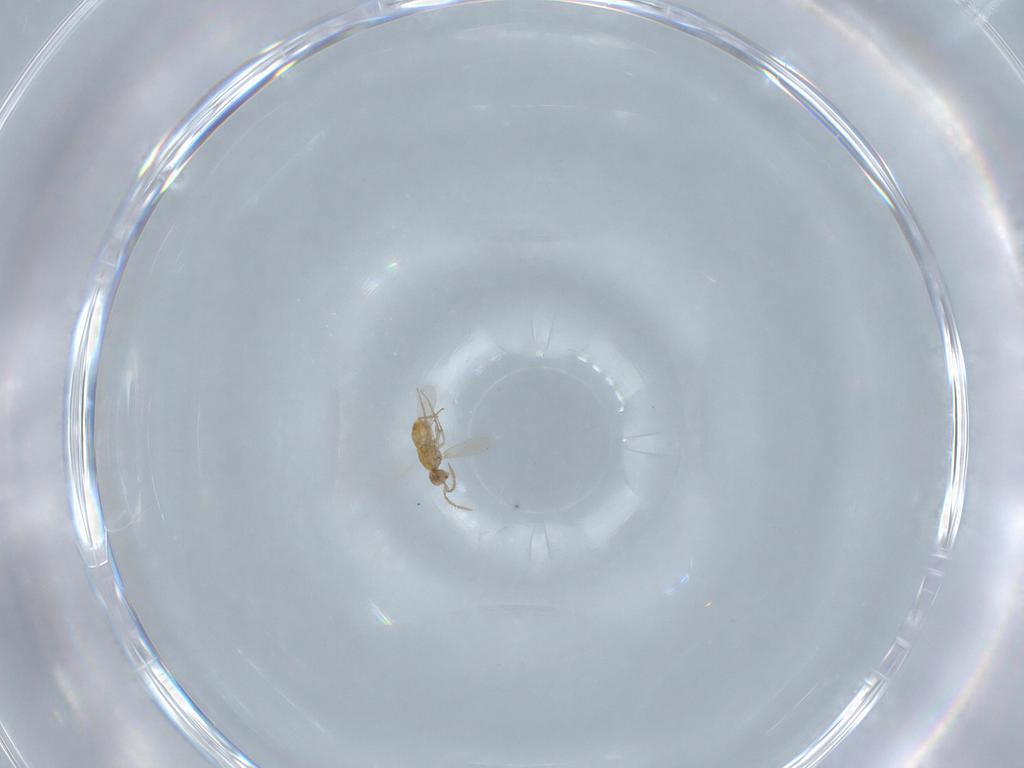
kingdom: Animalia
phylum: Arthropoda
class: Insecta
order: Hymenoptera
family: Aphelinidae
